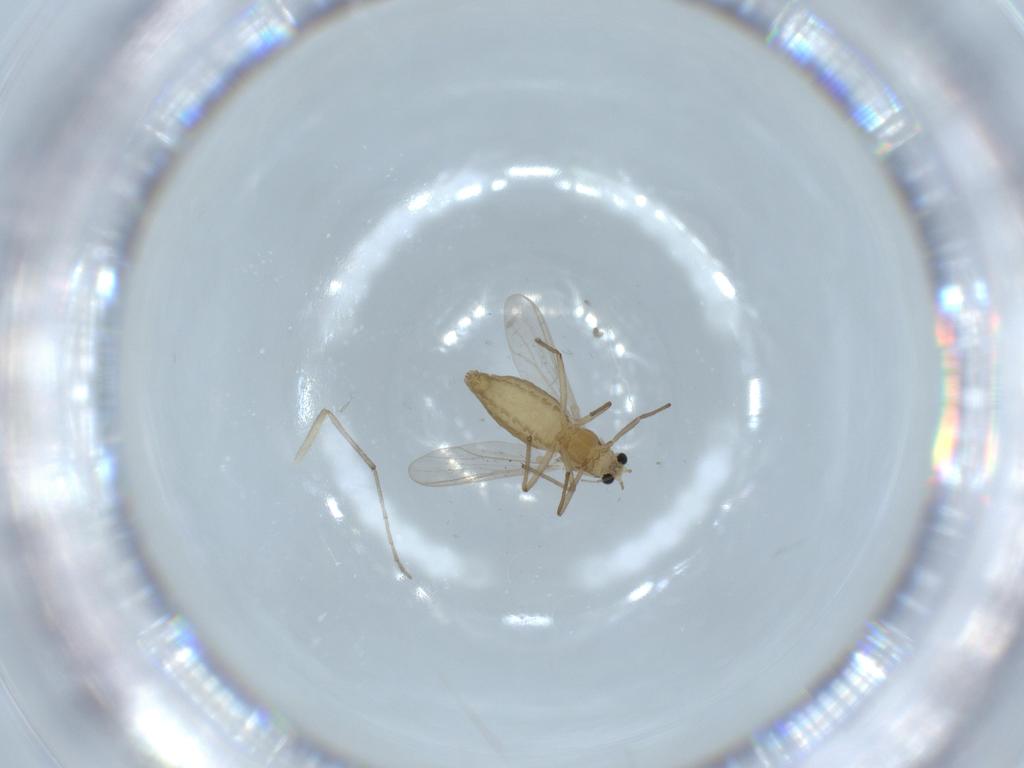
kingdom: Animalia
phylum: Arthropoda
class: Insecta
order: Diptera
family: Chironomidae
